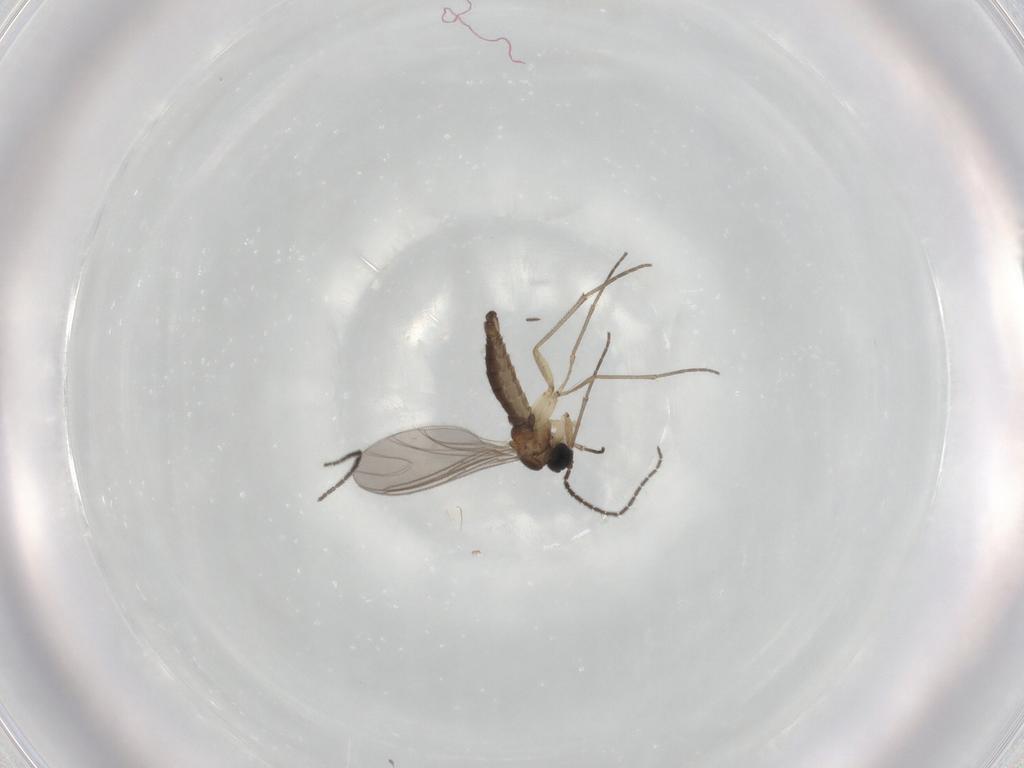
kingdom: Animalia
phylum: Arthropoda
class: Insecta
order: Diptera
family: Sciaridae
